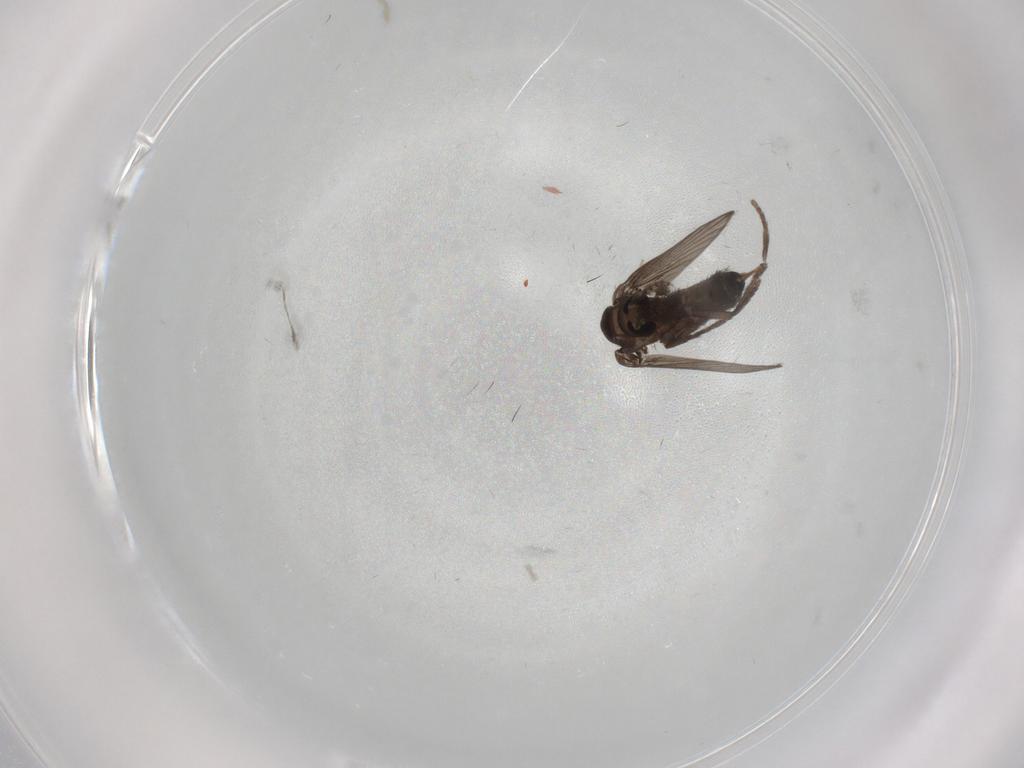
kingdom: Animalia
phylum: Arthropoda
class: Insecta
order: Diptera
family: Psychodidae
